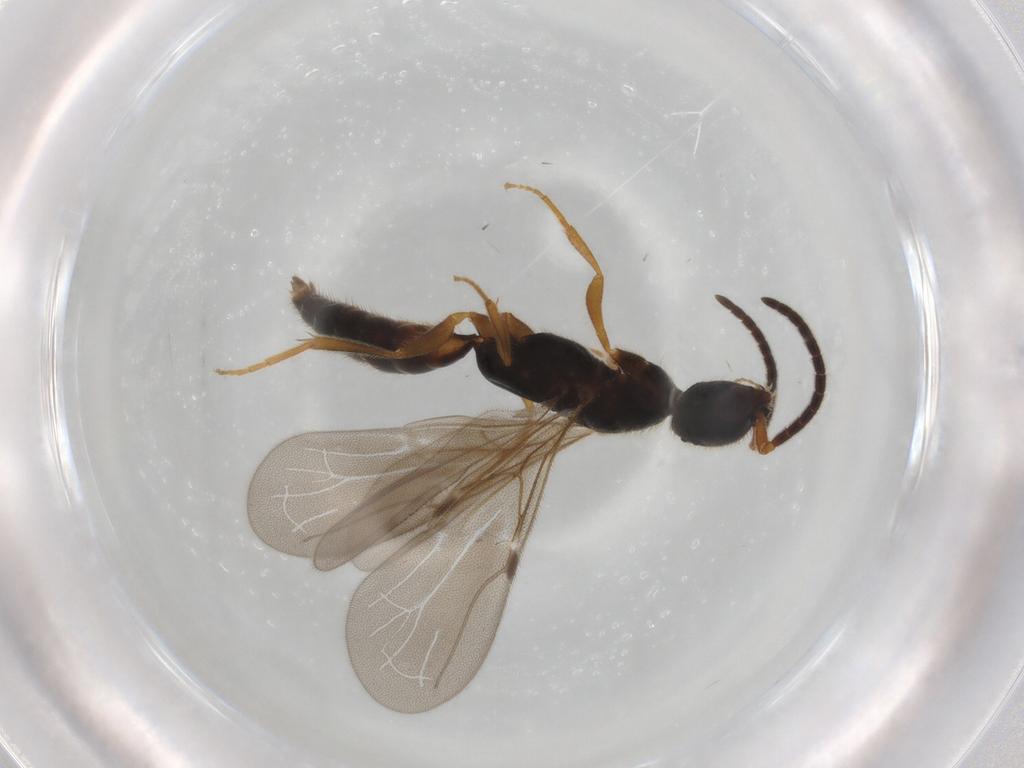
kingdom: Animalia
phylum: Arthropoda
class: Insecta
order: Hymenoptera
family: Bethylidae
